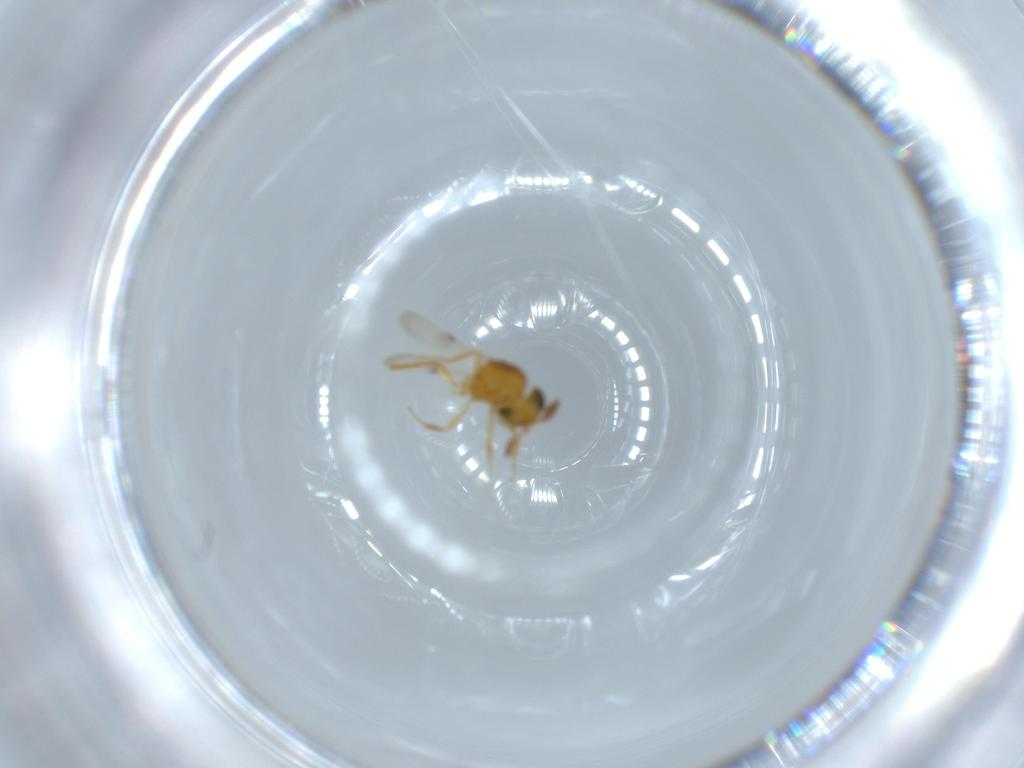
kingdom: Animalia
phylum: Arthropoda
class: Insecta
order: Hymenoptera
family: Scelionidae
